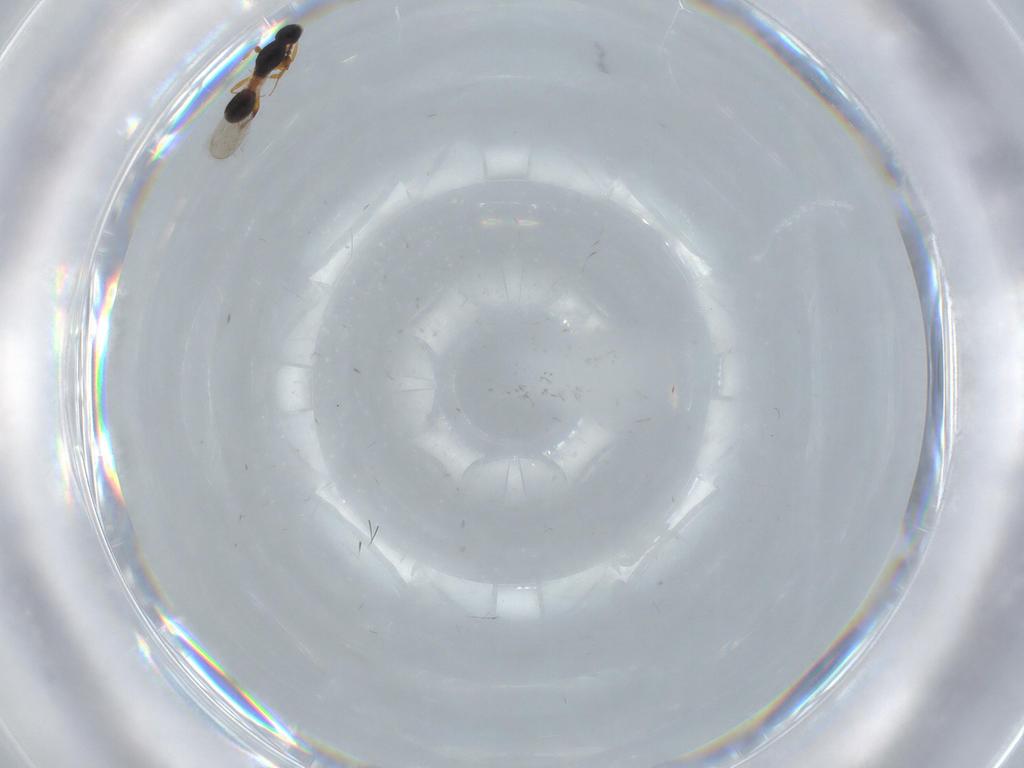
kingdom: Animalia
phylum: Arthropoda
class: Insecta
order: Hymenoptera
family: Platygastridae
